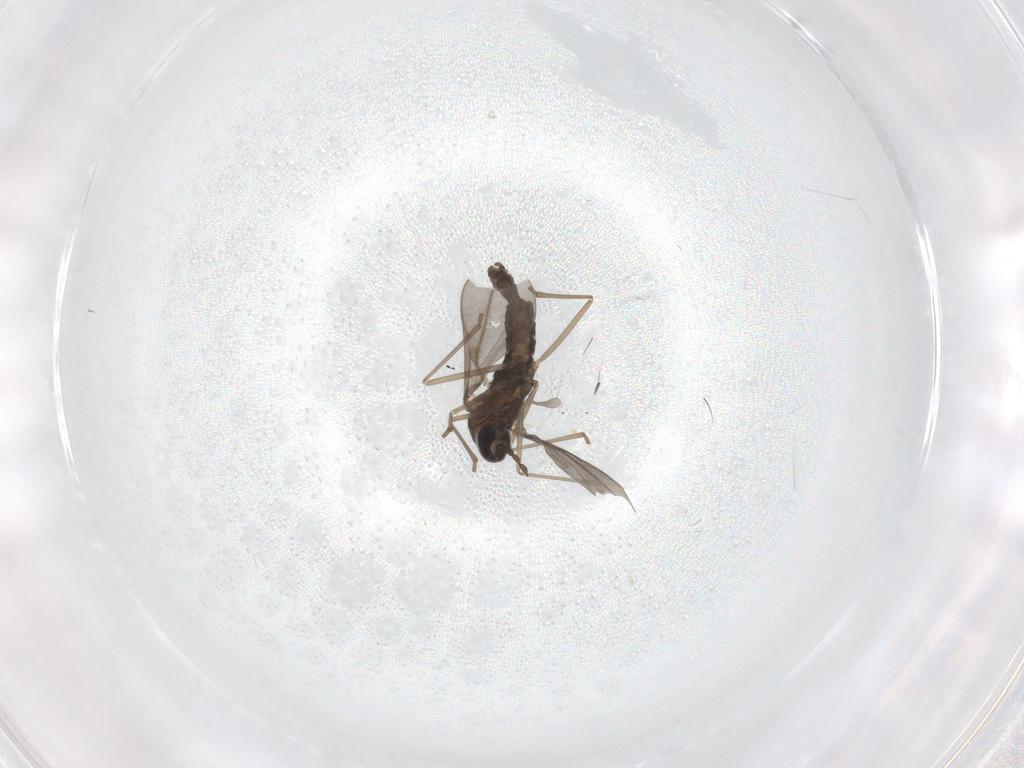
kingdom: Animalia
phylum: Arthropoda
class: Insecta
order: Diptera
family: Cecidomyiidae
